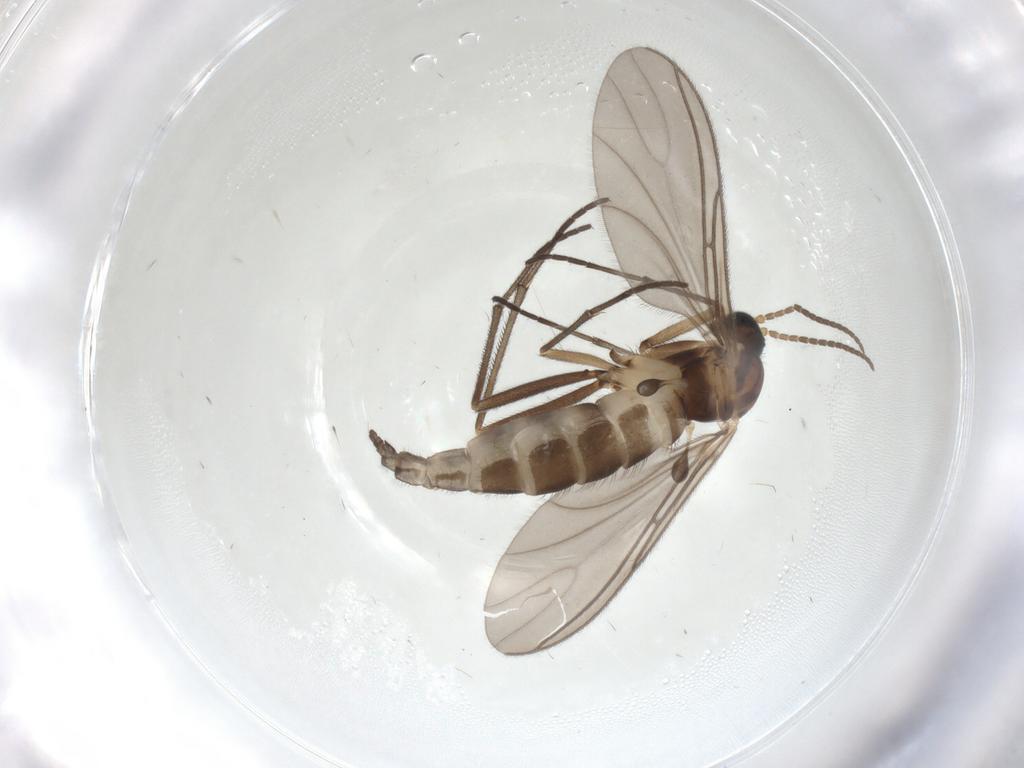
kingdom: Animalia
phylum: Arthropoda
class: Insecta
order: Diptera
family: Sciaridae
